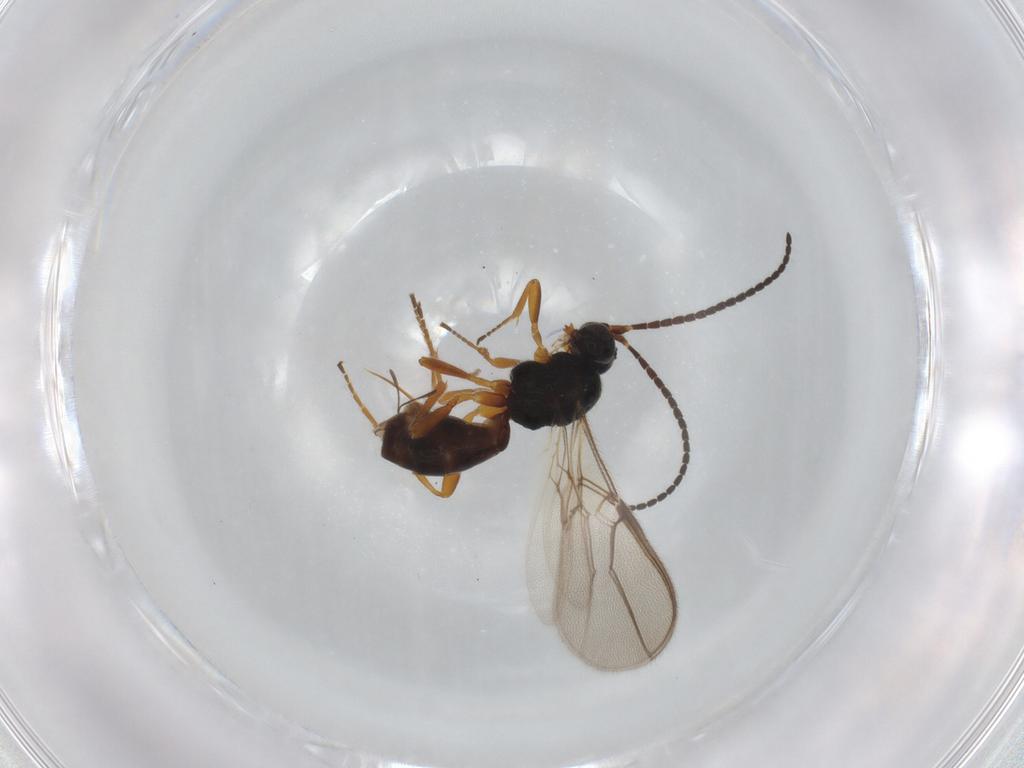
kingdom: Animalia
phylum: Arthropoda
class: Insecta
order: Hymenoptera
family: Braconidae
